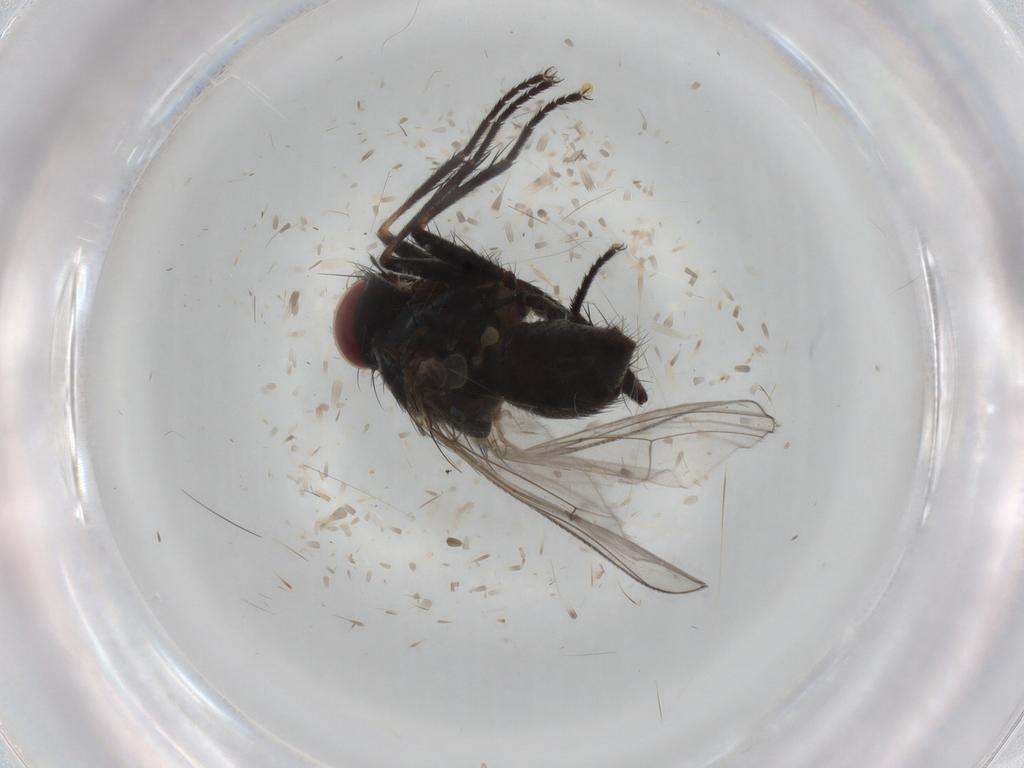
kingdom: Animalia
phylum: Arthropoda
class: Insecta
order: Diptera
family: Muscidae
